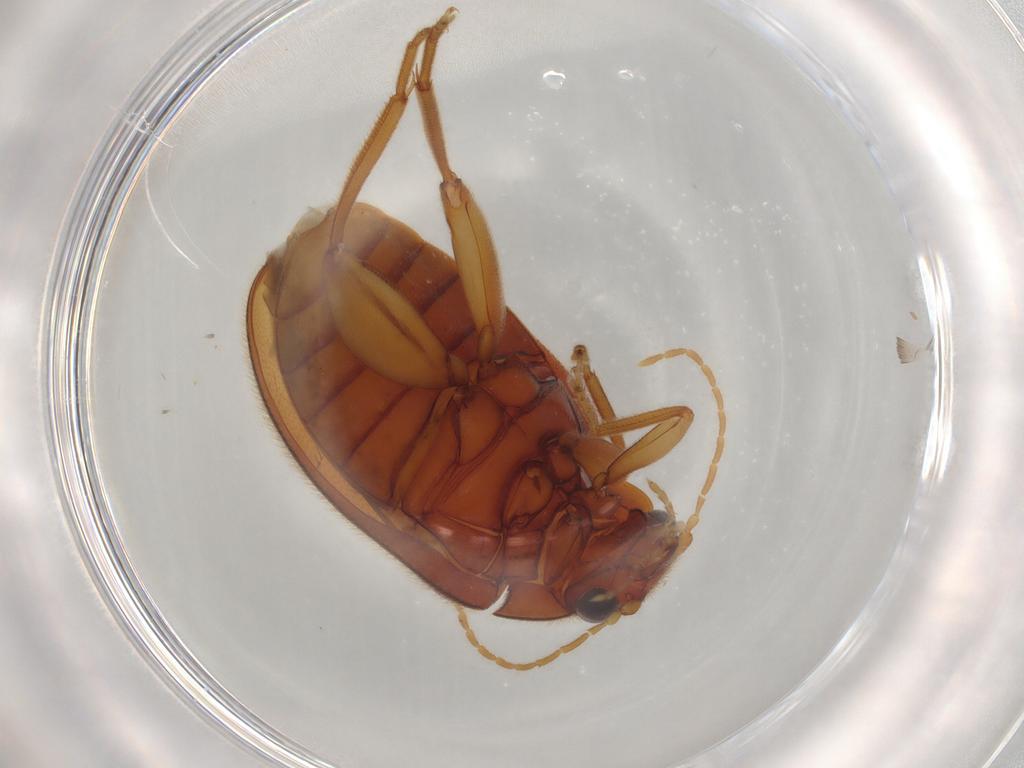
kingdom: Animalia
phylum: Arthropoda
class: Insecta
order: Coleoptera
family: Scirtidae
